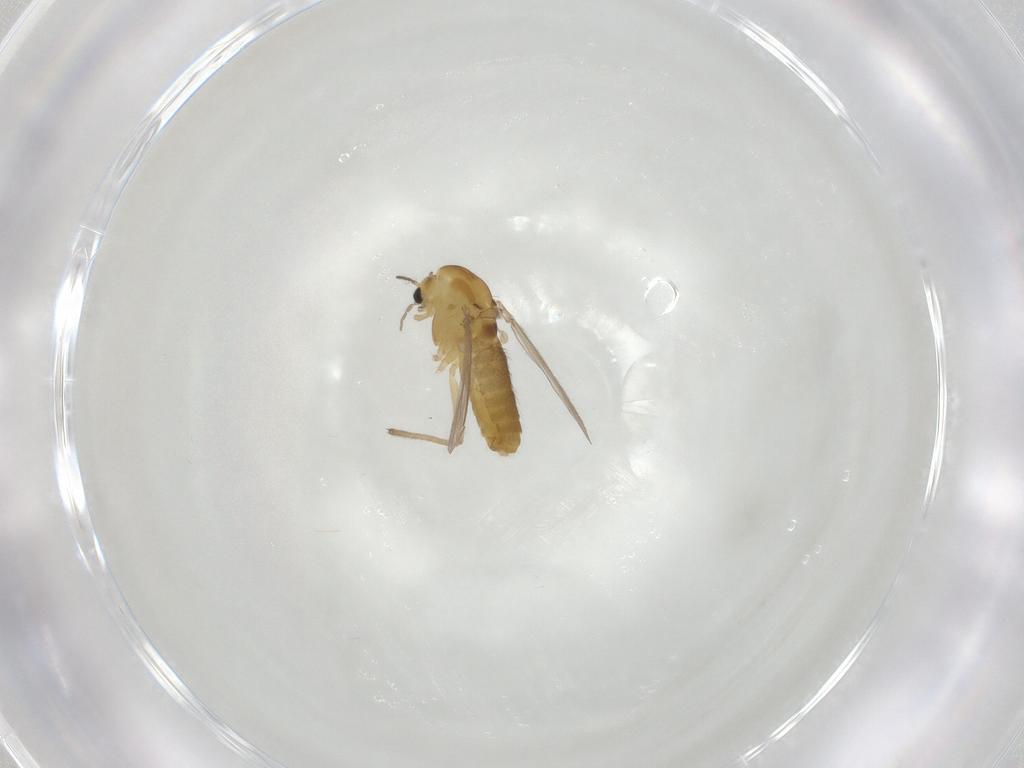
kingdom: Animalia
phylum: Arthropoda
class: Insecta
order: Diptera
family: Chironomidae
